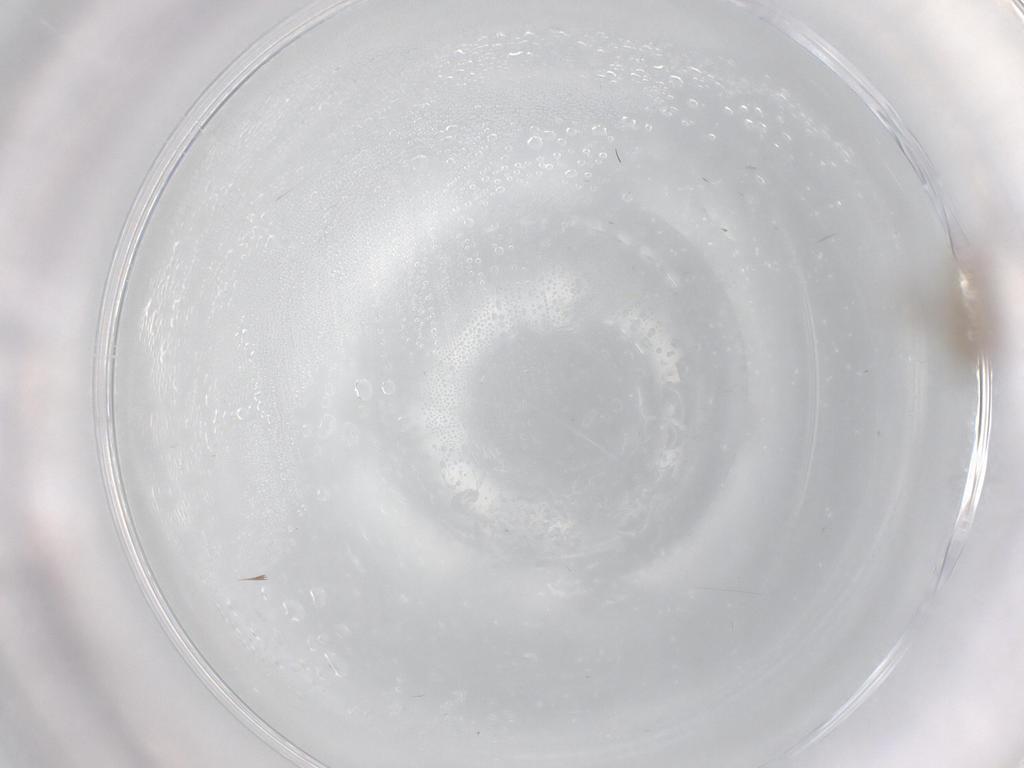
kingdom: Animalia
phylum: Arthropoda
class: Insecta
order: Diptera
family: Chironomidae
